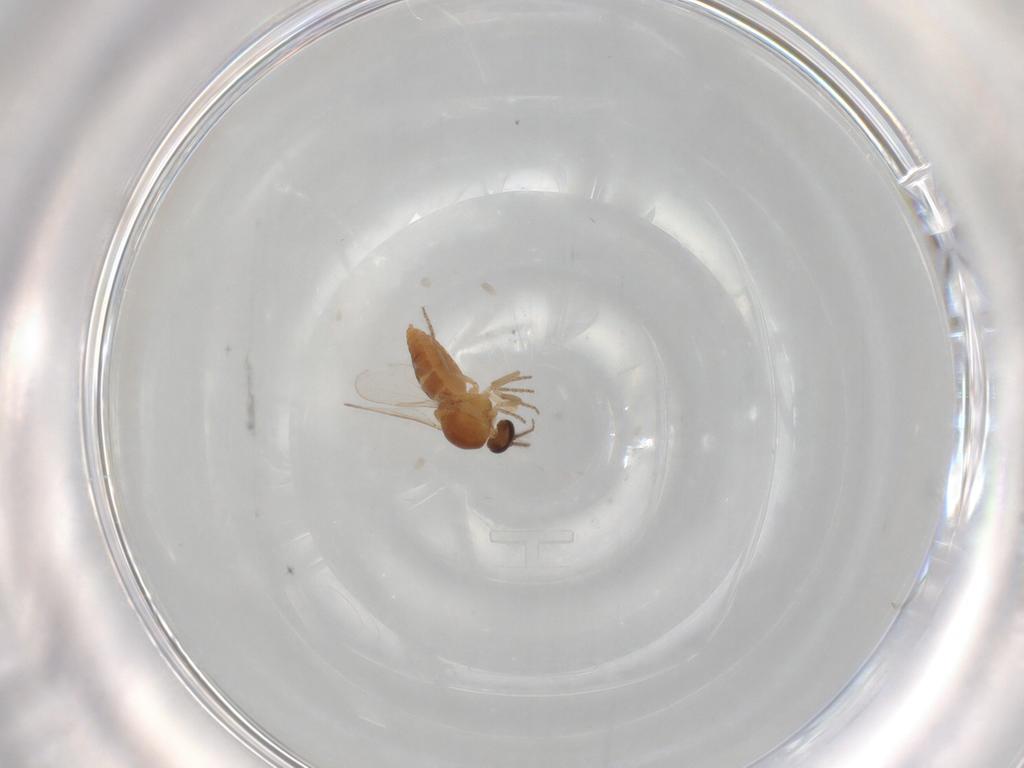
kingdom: Animalia
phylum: Arthropoda
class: Insecta
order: Diptera
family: Ceratopogonidae
